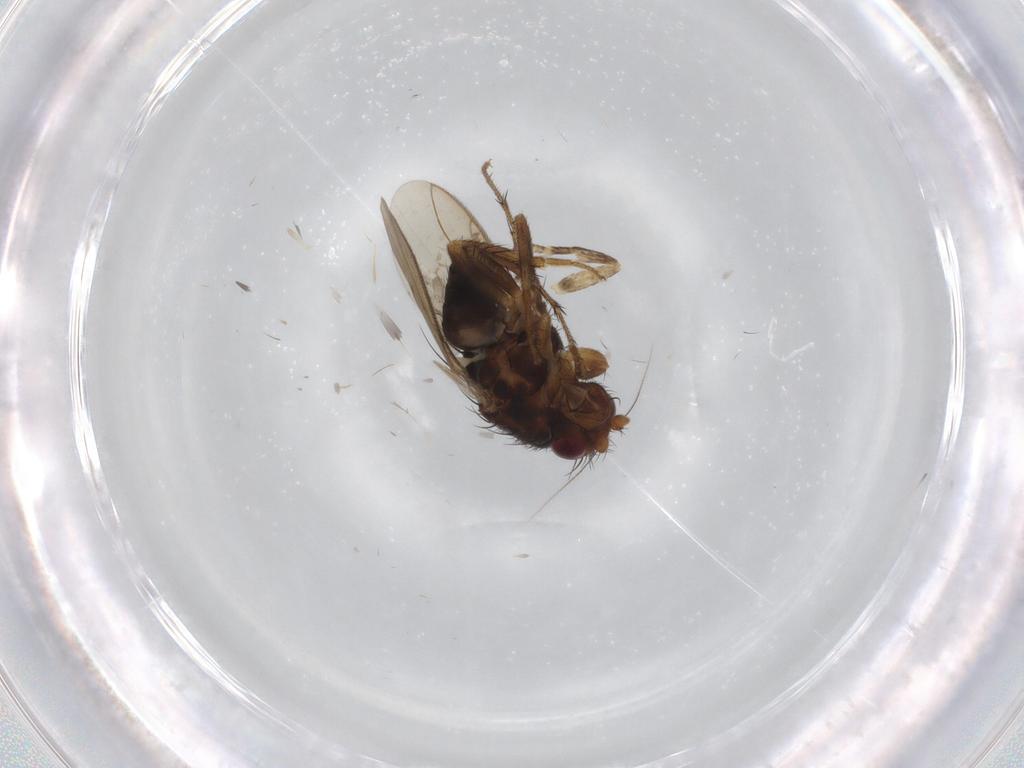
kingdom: Animalia
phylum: Arthropoda
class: Insecta
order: Diptera
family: Sphaeroceridae
